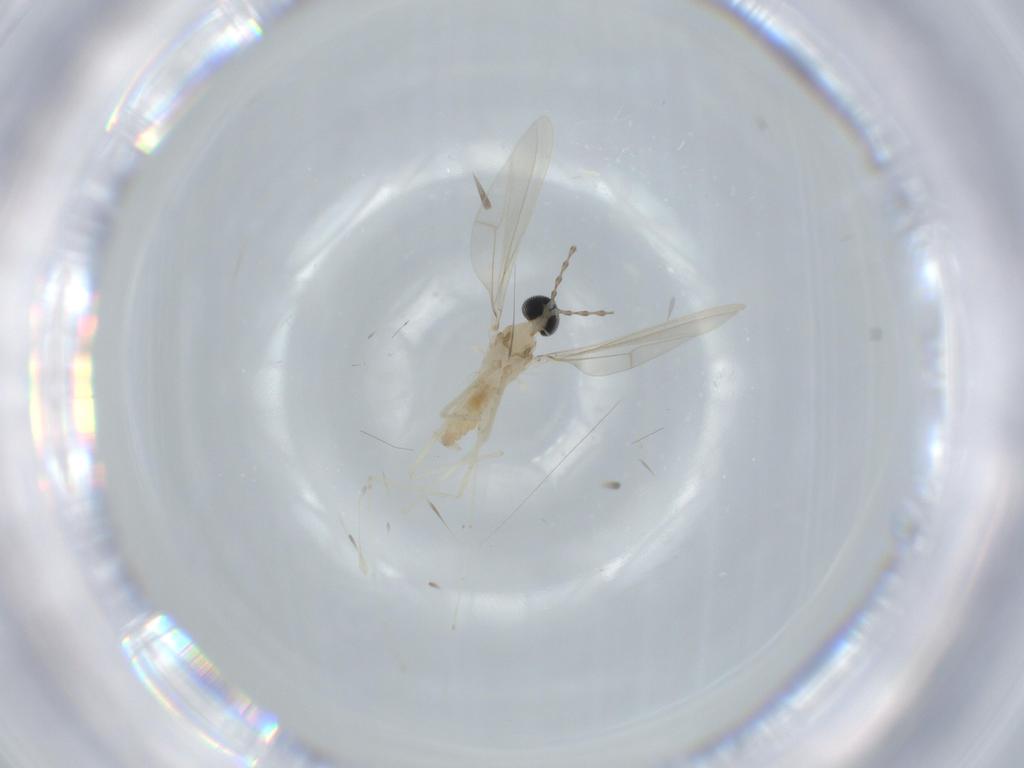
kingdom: Animalia
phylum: Arthropoda
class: Insecta
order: Diptera
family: Cecidomyiidae
